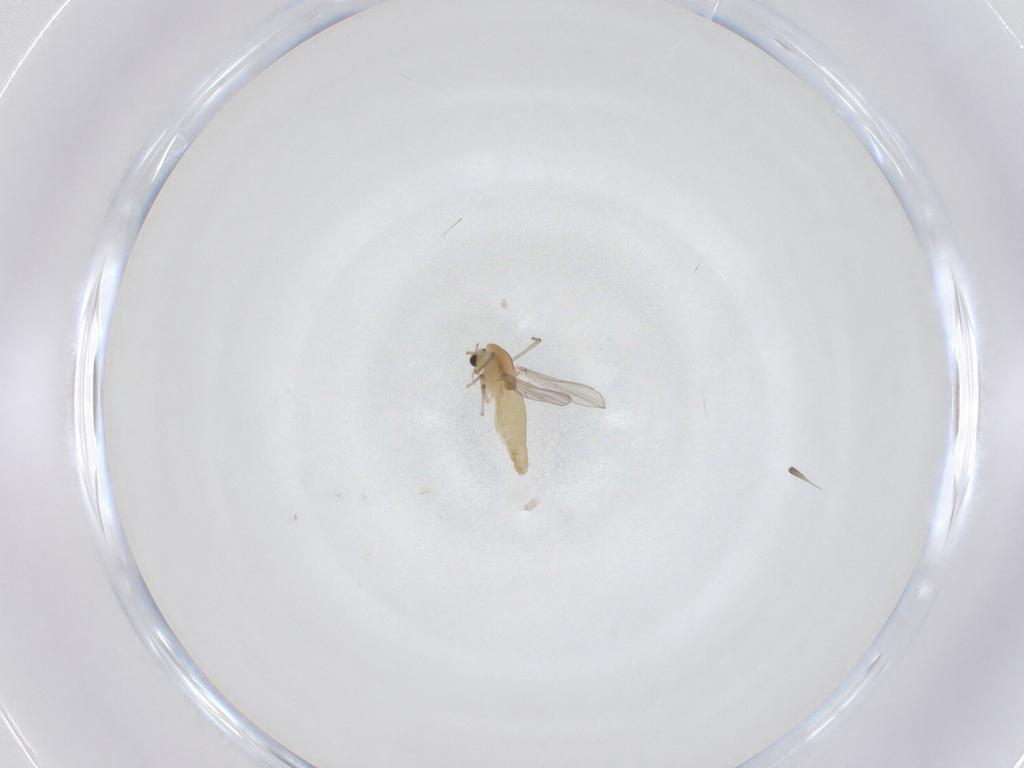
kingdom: Animalia
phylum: Arthropoda
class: Insecta
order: Diptera
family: Chironomidae
